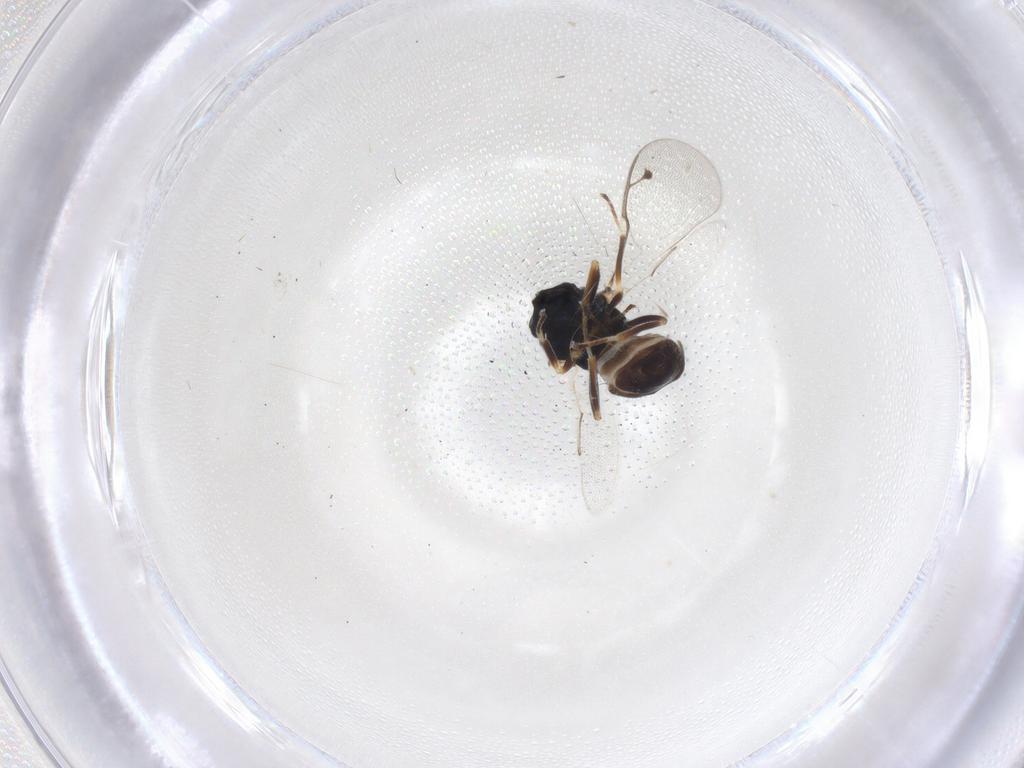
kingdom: Animalia
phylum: Arthropoda
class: Insecta
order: Hymenoptera
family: Pteromalidae
